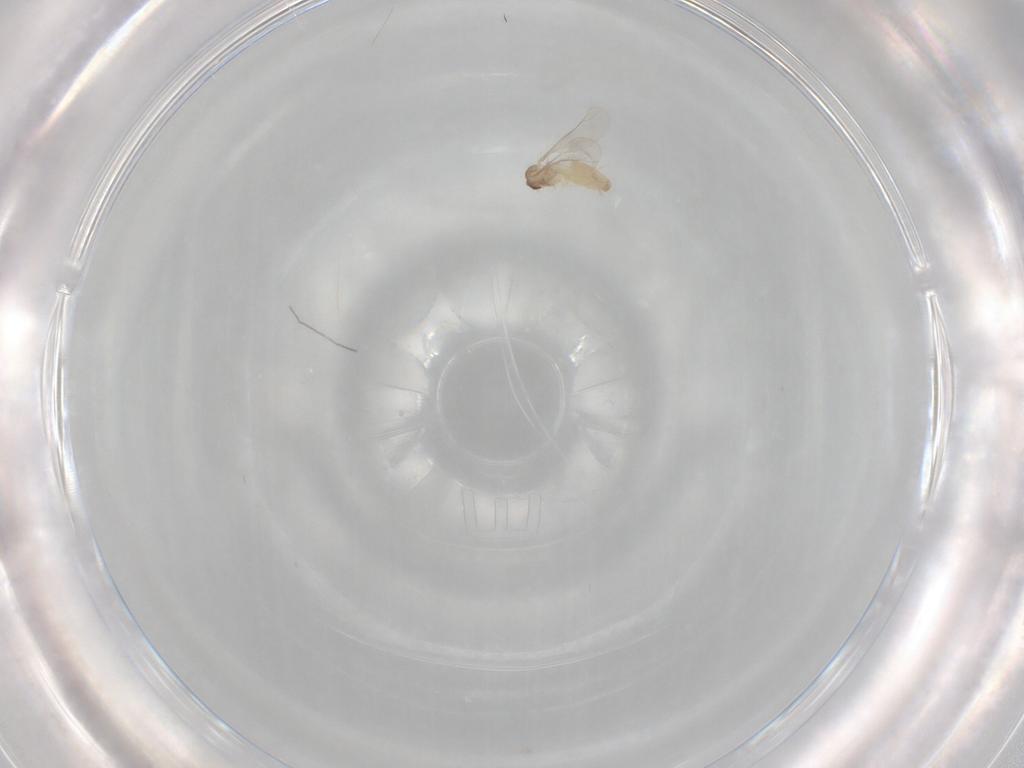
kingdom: Animalia
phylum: Arthropoda
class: Insecta
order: Diptera
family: Cecidomyiidae
